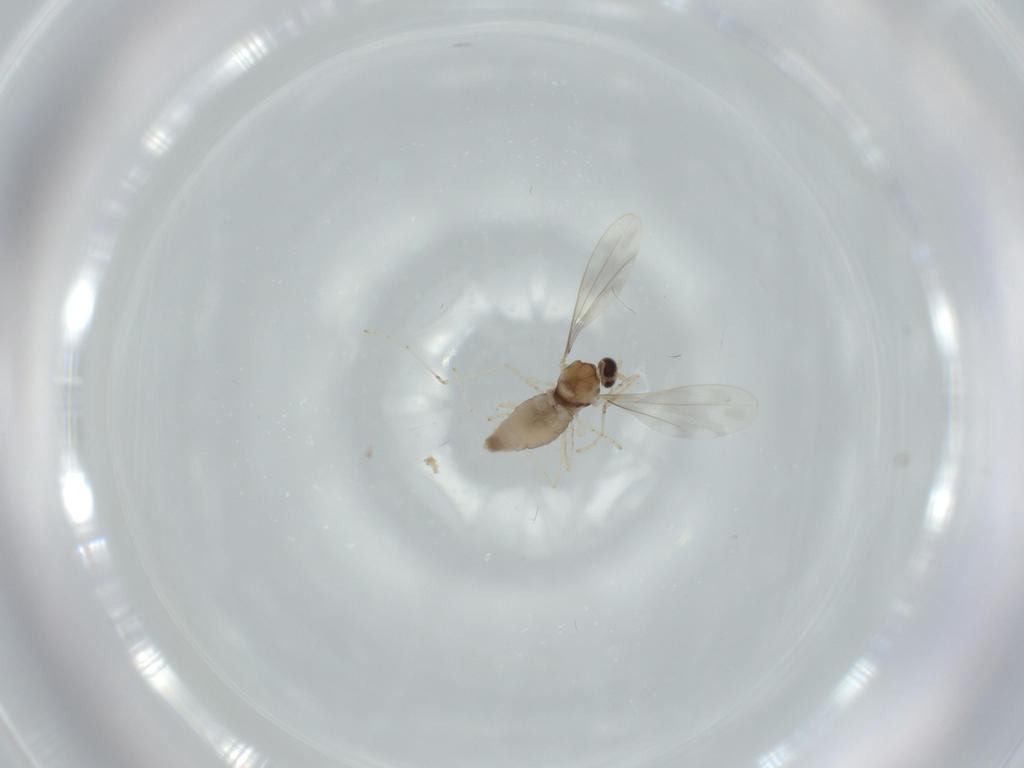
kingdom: Animalia
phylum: Arthropoda
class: Insecta
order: Diptera
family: Cecidomyiidae
